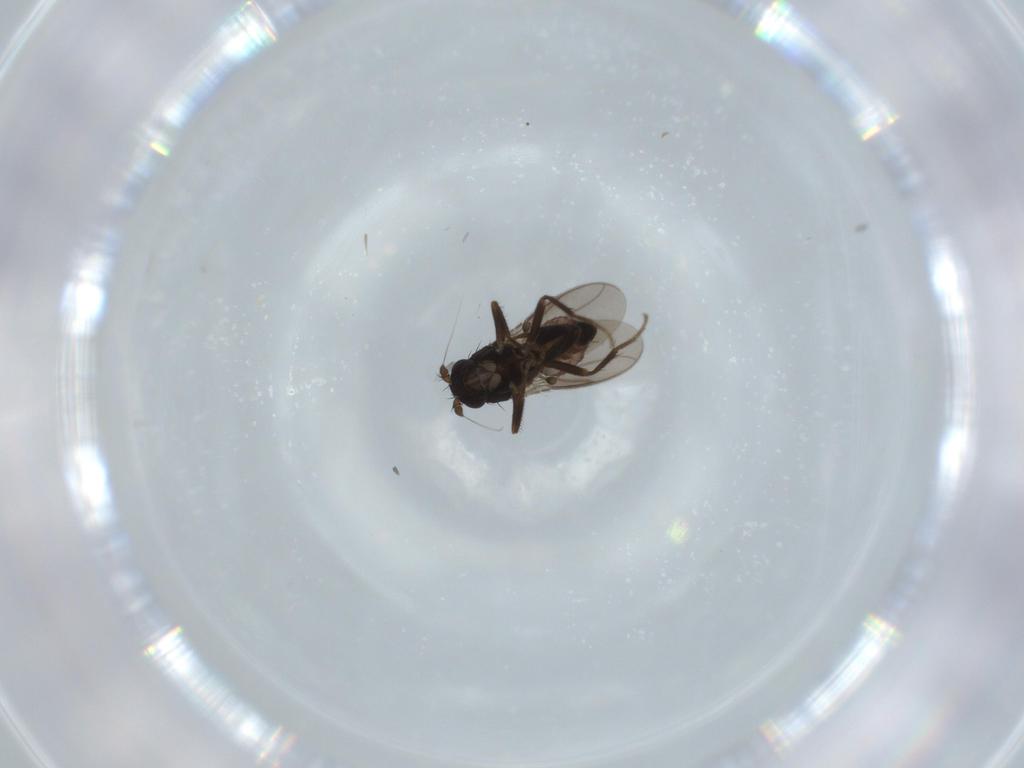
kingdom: Animalia
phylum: Arthropoda
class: Insecta
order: Diptera
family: Sphaeroceridae
